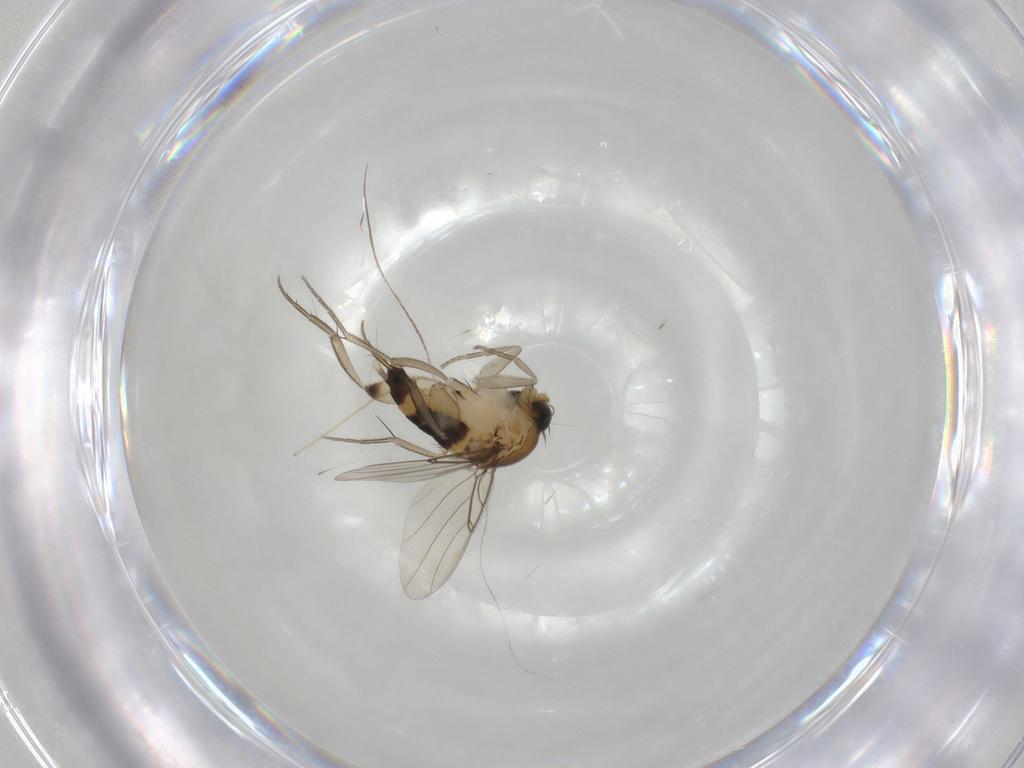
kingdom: Animalia
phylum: Arthropoda
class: Insecta
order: Diptera
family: Phoridae
